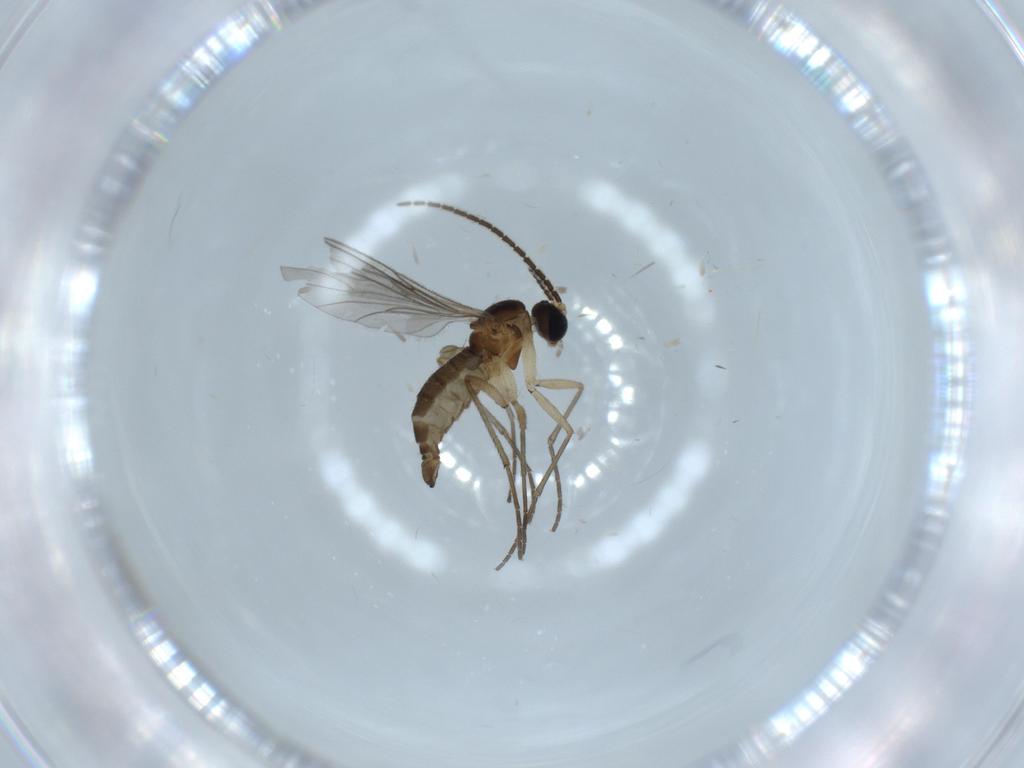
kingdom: Animalia
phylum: Arthropoda
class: Insecta
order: Diptera
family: Sciaridae
